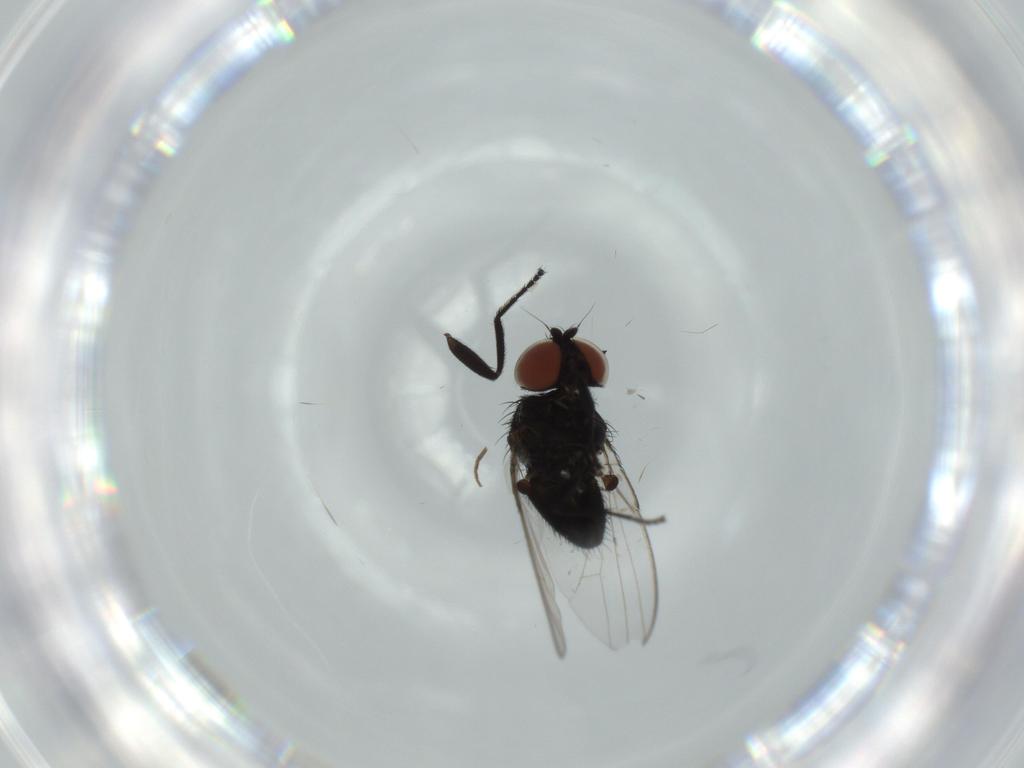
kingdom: Animalia
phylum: Arthropoda
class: Insecta
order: Diptera
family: Milichiidae
